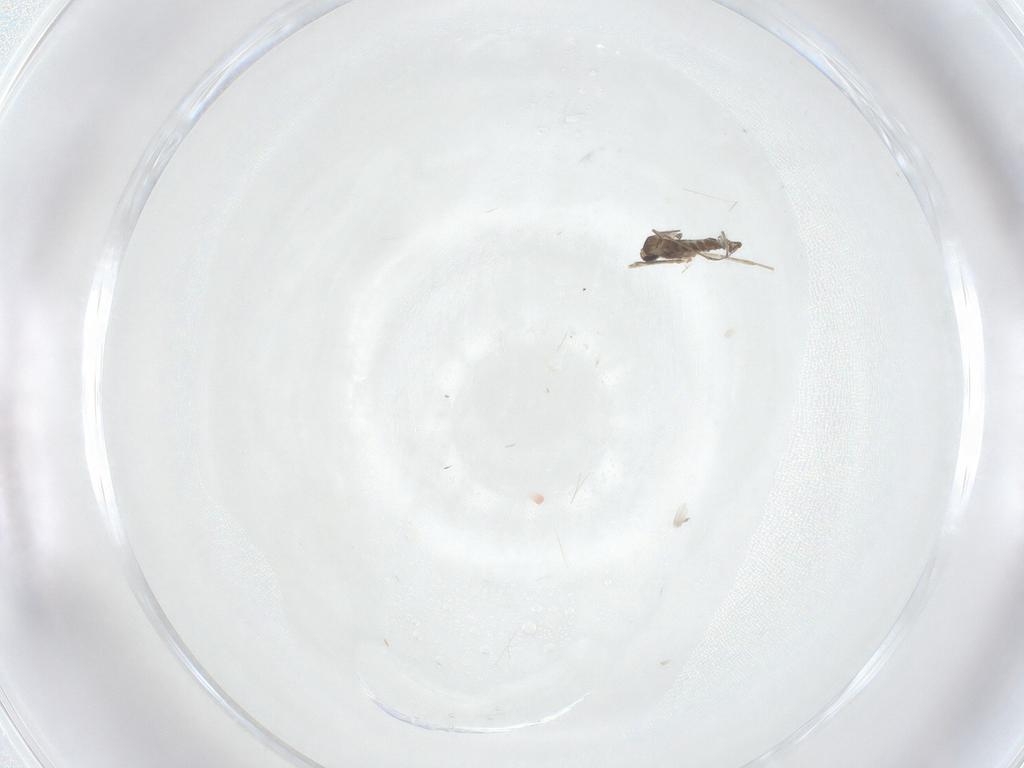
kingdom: Animalia
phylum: Arthropoda
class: Insecta
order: Diptera
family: Cecidomyiidae
